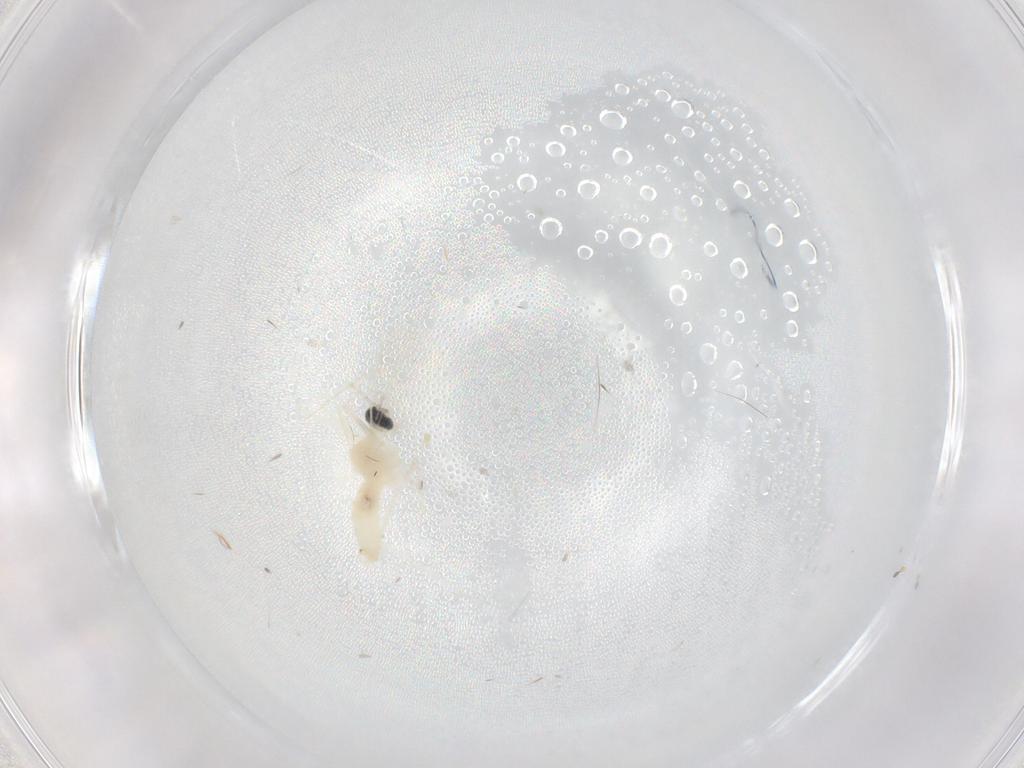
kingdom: Animalia
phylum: Arthropoda
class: Insecta
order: Diptera
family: Cecidomyiidae
